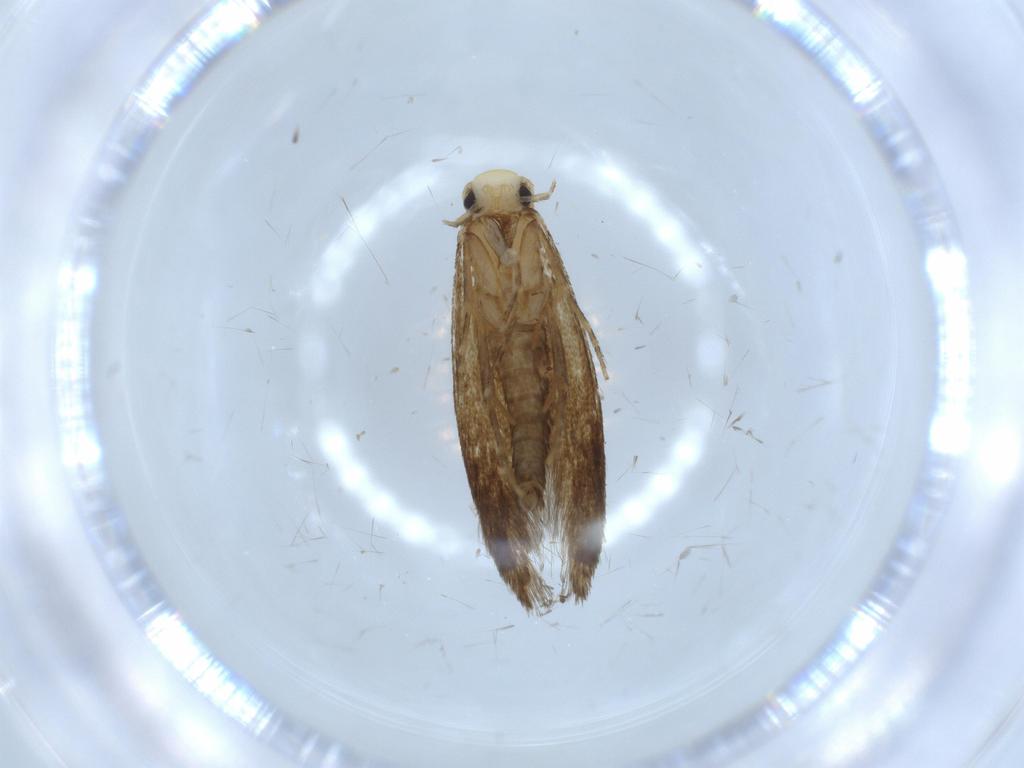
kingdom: Animalia
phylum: Arthropoda
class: Insecta
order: Lepidoptera
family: Tineidae
